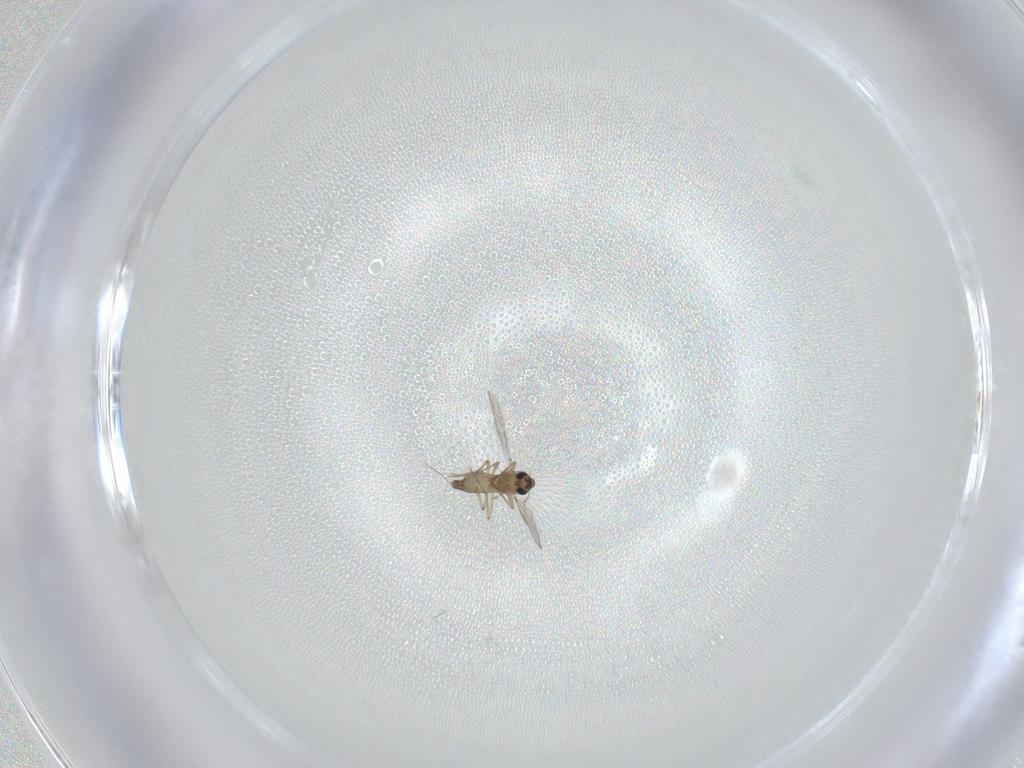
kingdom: Animalia
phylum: Arthropoda
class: Insecta
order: Diptera
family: Chironomidae
